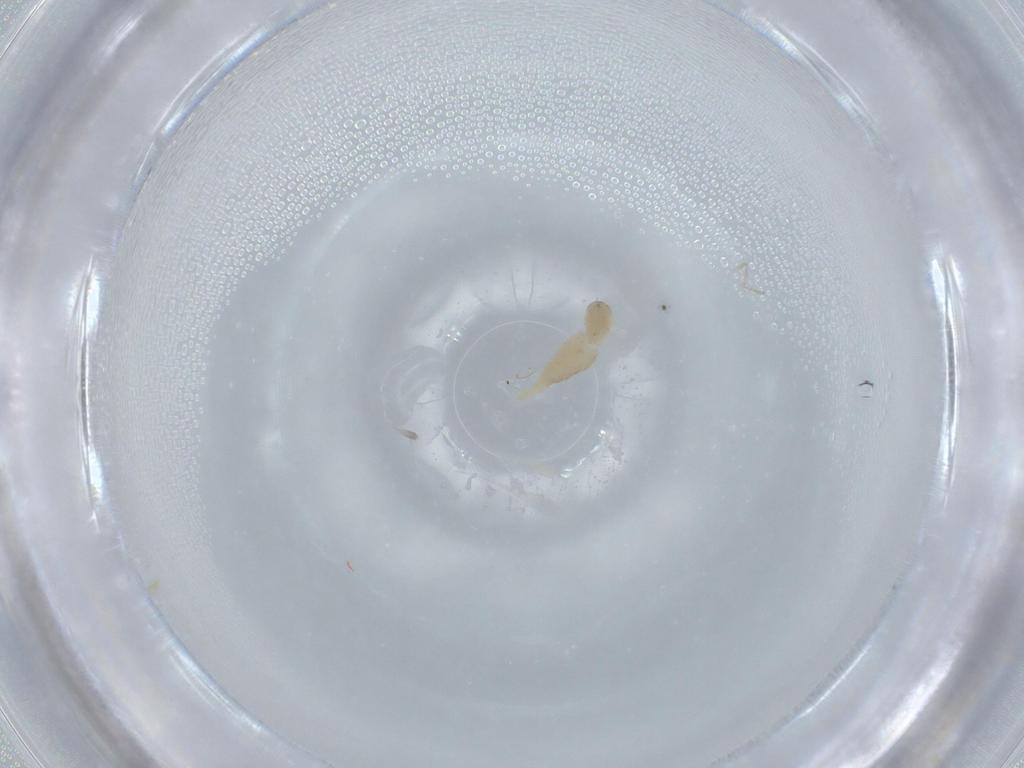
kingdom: Animalia
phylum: Arthropoda
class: Insecta
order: Diptera
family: Cecidomyiidae
